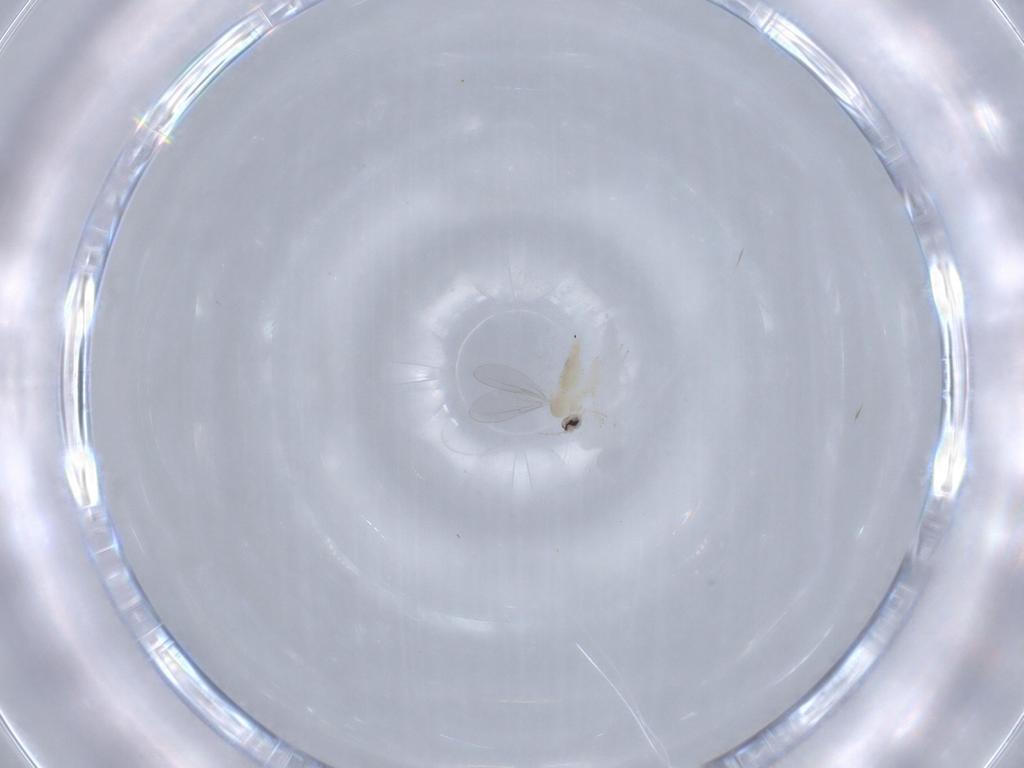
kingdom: Animalia
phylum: Arthropoda
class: Insecta
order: Diptera
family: Cecidomyiidae
